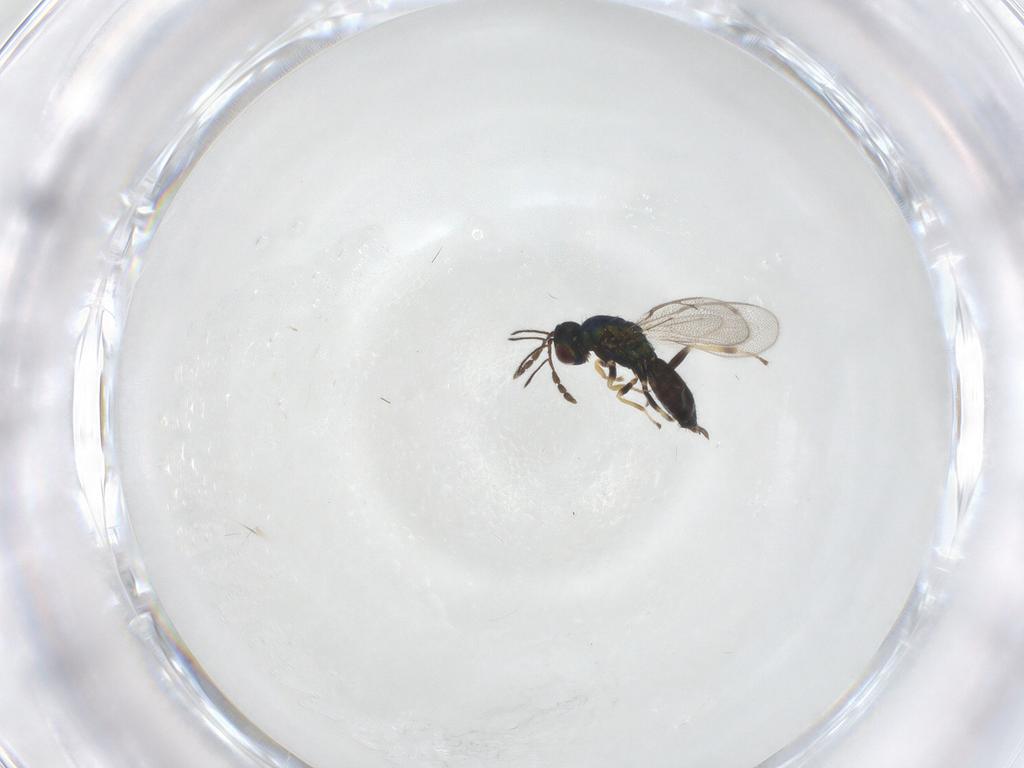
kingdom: Animalia
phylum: Arthropoda
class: Insecta
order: Hymenoptera
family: Eulophidae
